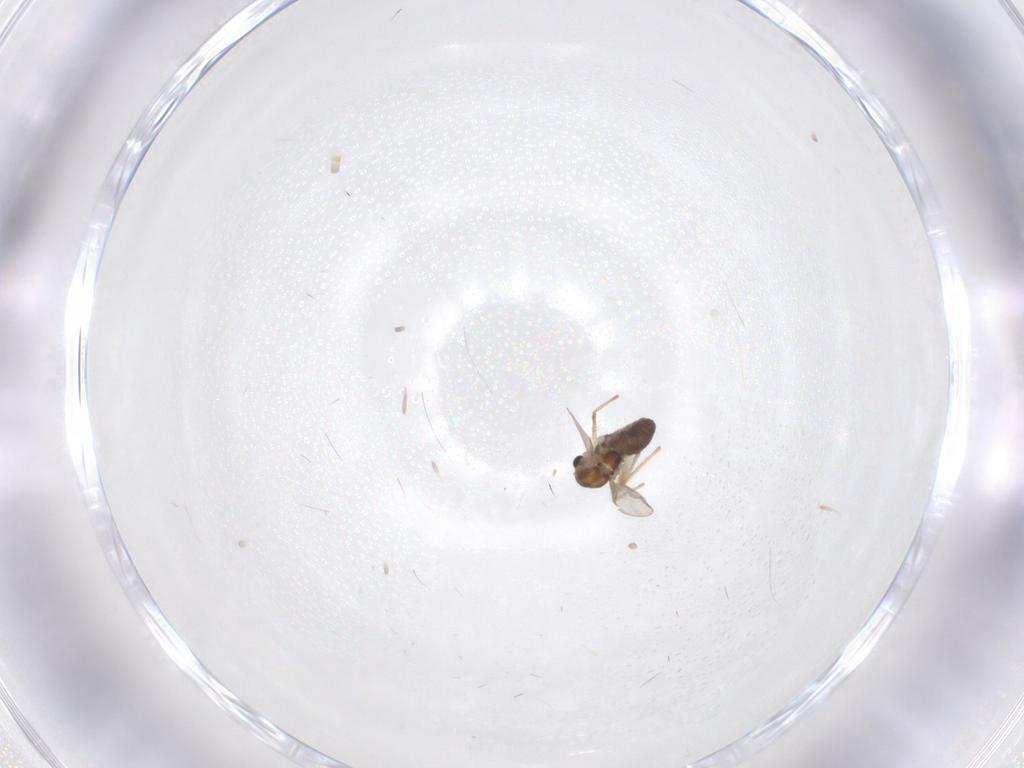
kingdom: Animalia
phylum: Arthropoda
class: Insecta
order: Diptera
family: Chironomidae
